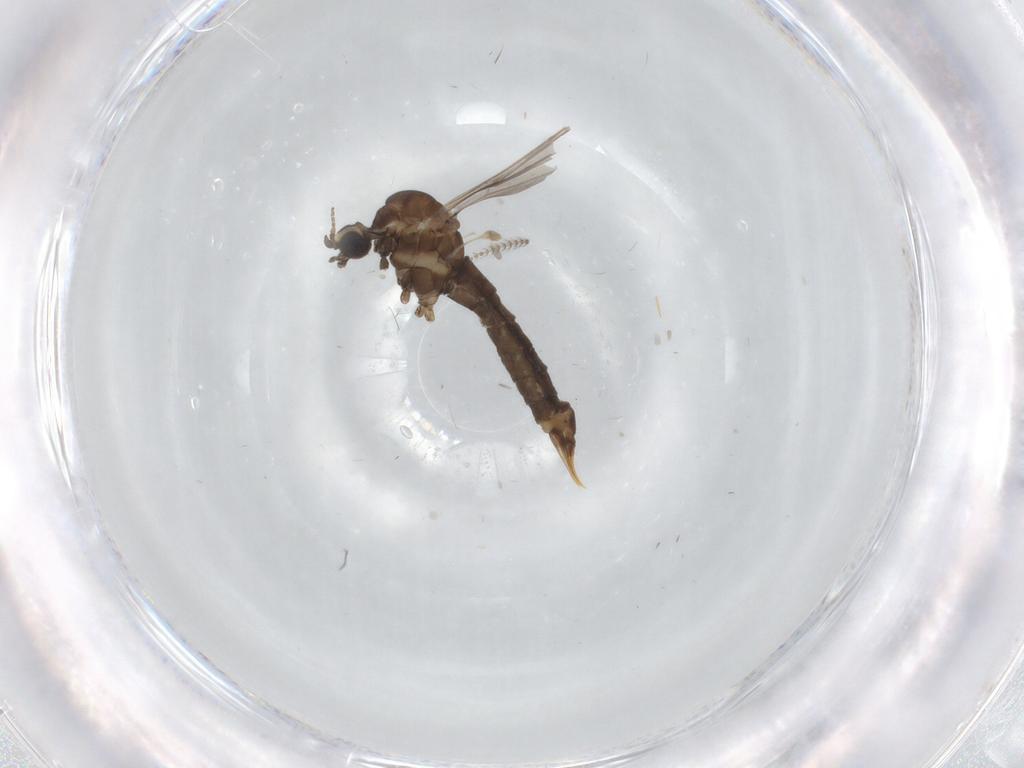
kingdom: Animalia
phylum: Arthropoda
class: Insecta
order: Diptera
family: Limoniidae
